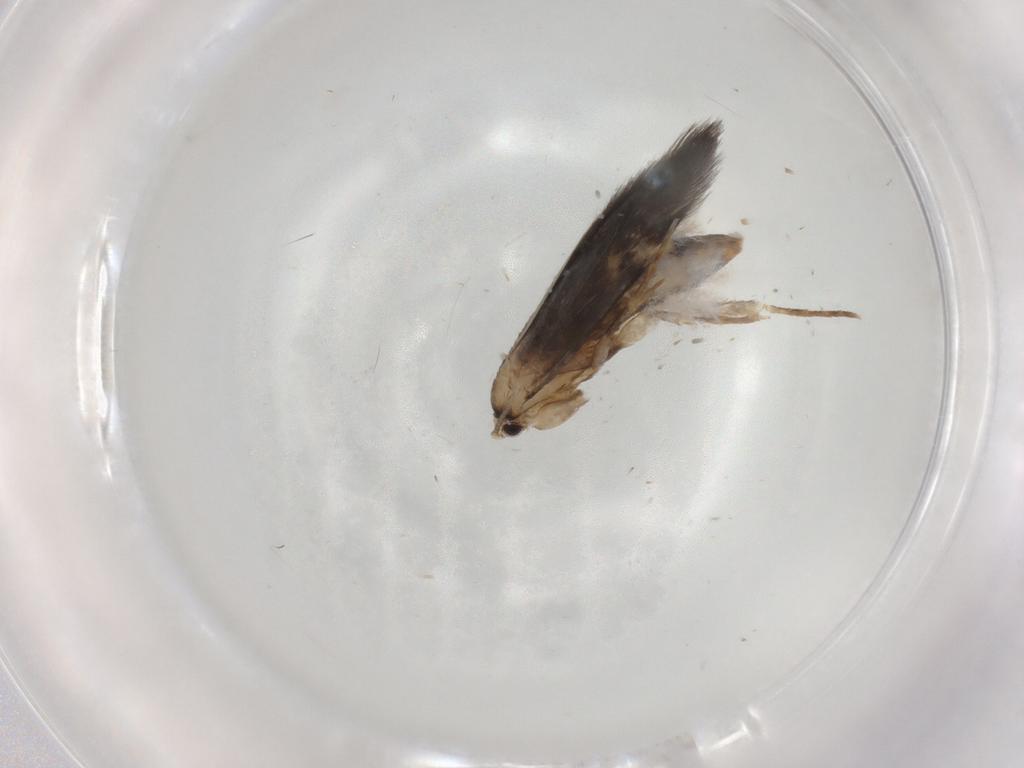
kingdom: Animalia
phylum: Arthropoda
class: Insecta
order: Lepidoptera
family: Tineidae
